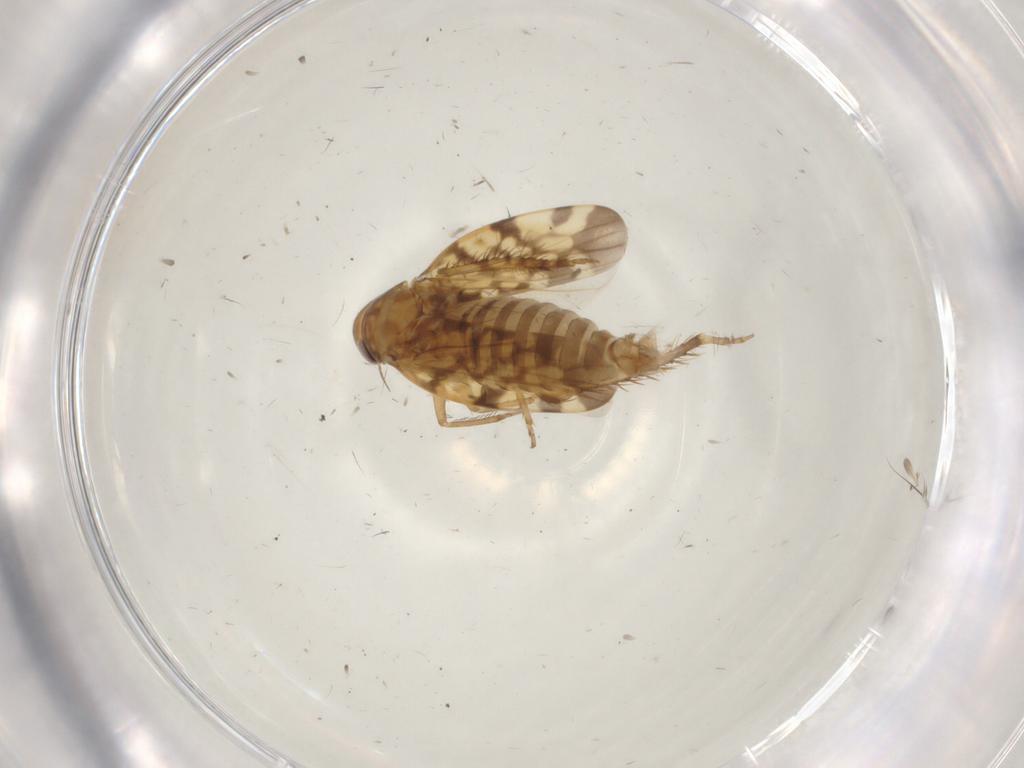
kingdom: Animalia
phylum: Arthropoda
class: Insecta
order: Hemiptera
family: Cicadellidae
